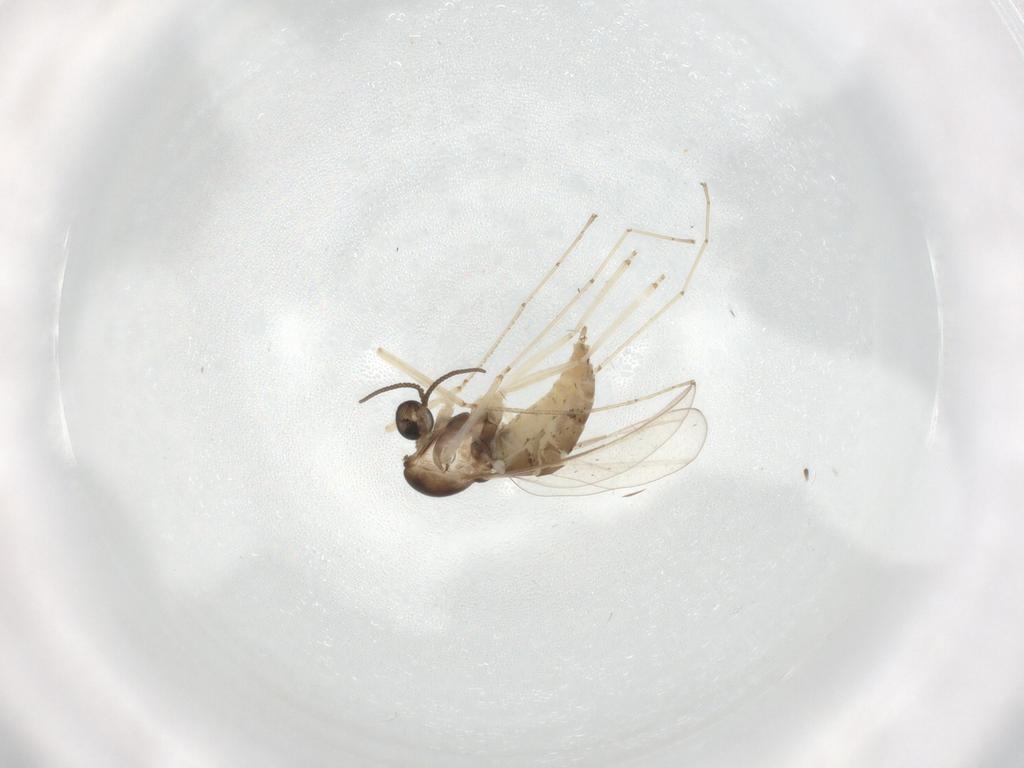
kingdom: Animalia
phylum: Arthropoda
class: Insecta
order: Diptera
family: Cecidomyiidae
